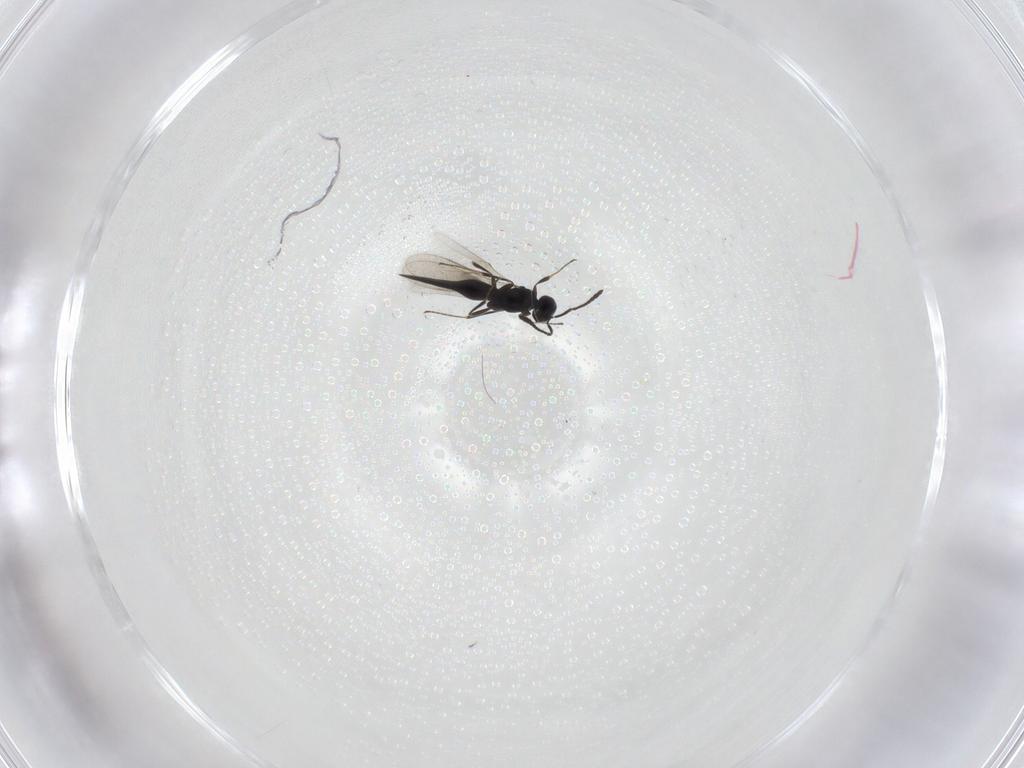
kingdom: Animalia
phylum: Arthropoda
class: Insecta
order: Hymenoptera
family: Scelionidae
